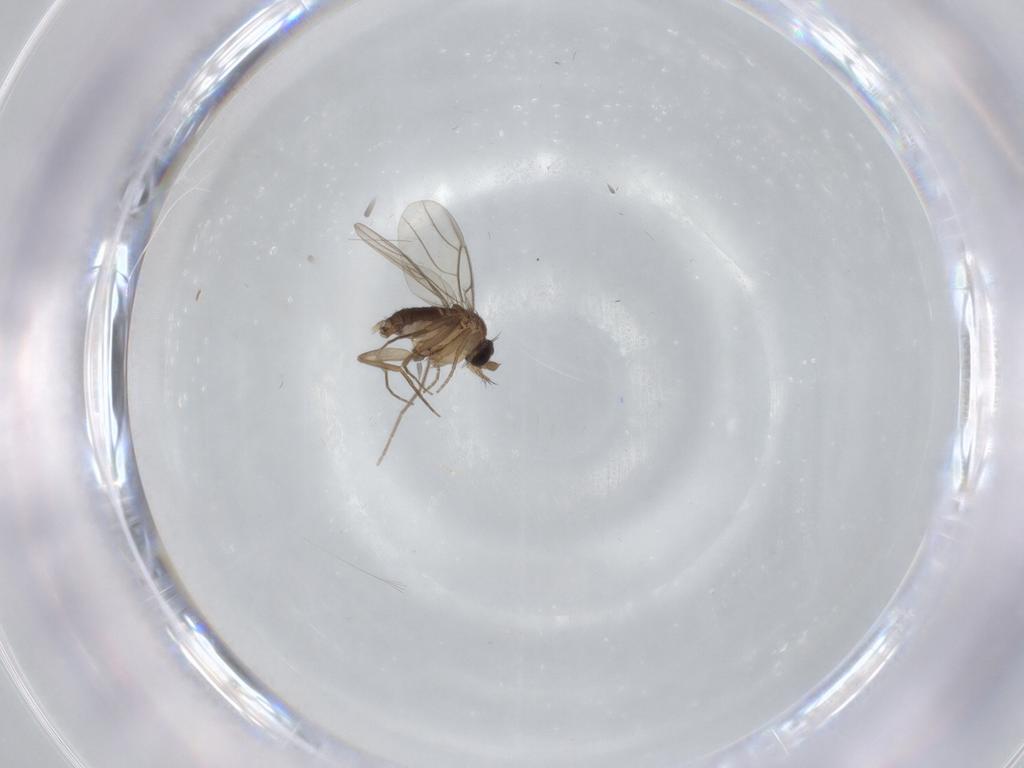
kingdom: Animalia
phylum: Arthropoda
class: Insecta
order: Diptera
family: Chironomidae
